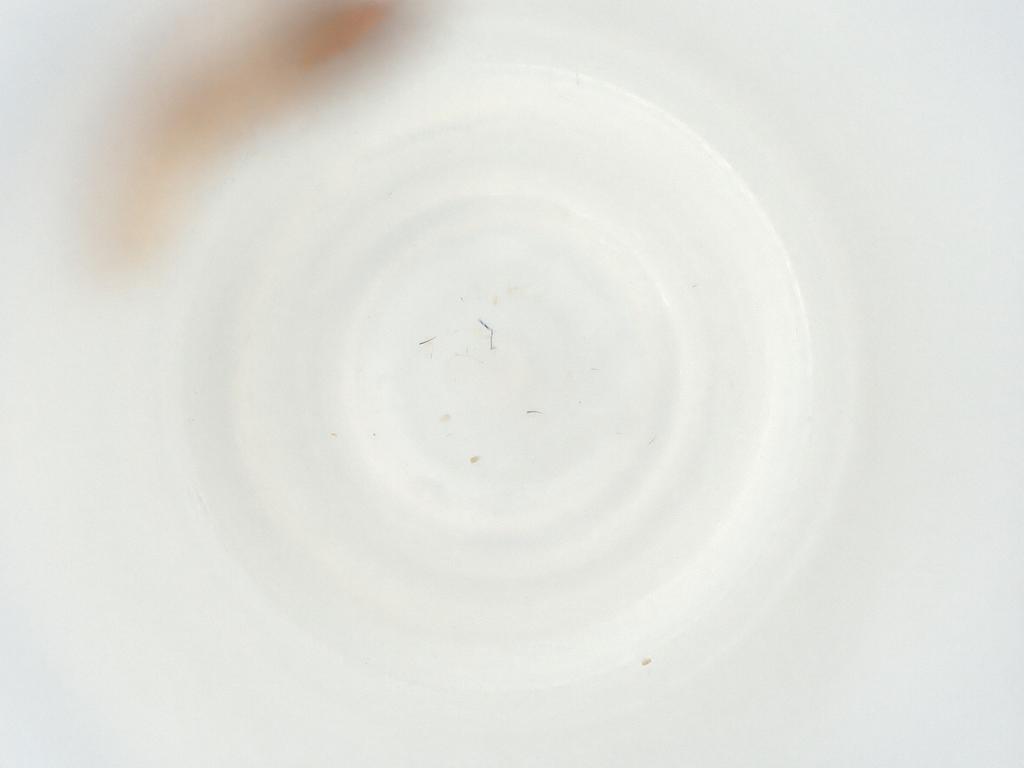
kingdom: Animalia
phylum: Arthropoda
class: Insecta
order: Diptera
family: Sciaridae
